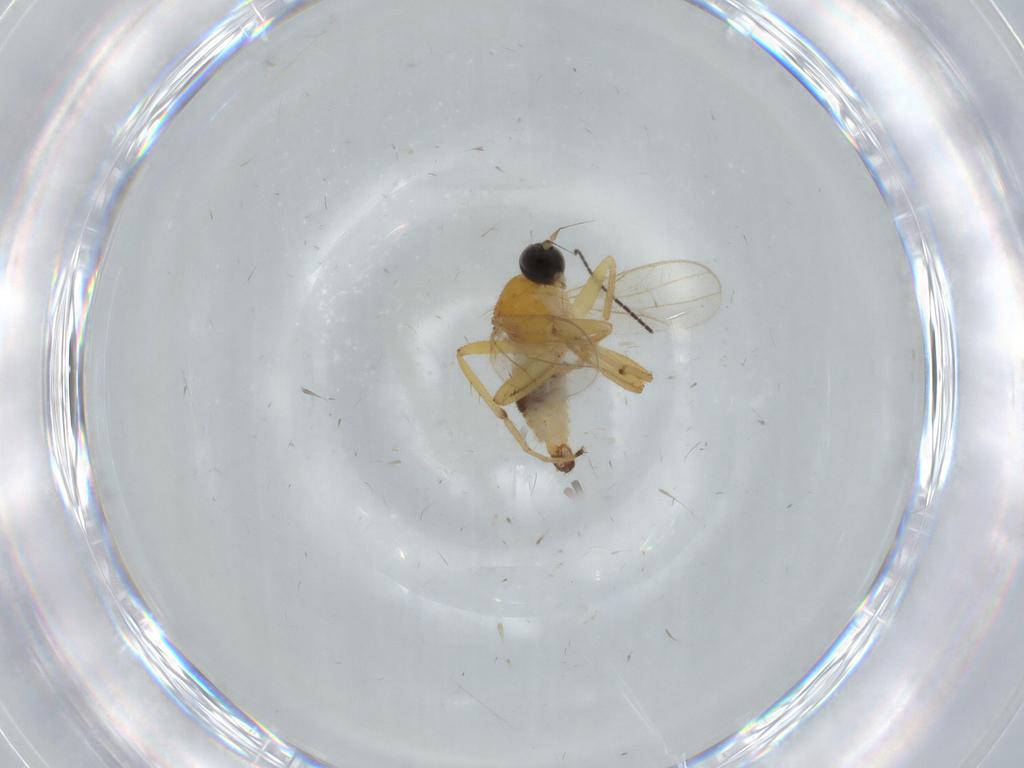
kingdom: Animalia
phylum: Arthropoda
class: Insecta
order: Diptera
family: Hybotidae
